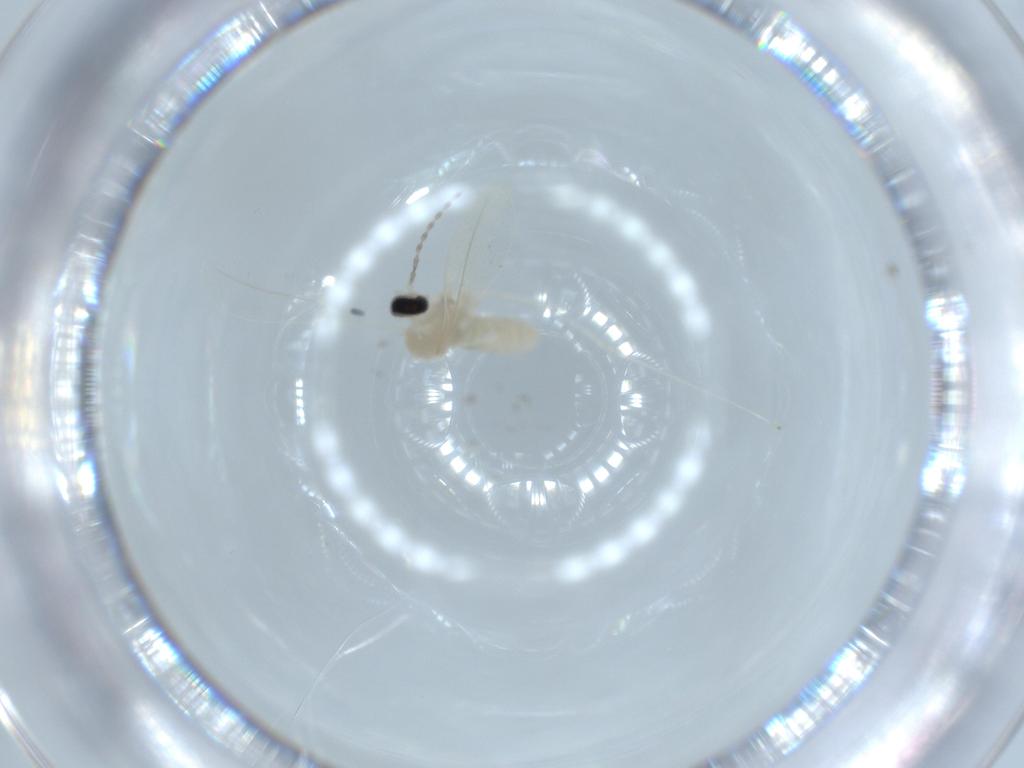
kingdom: Animalia
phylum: Arthropoda
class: Insecta
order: Diptera
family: Cecidomyiidae
